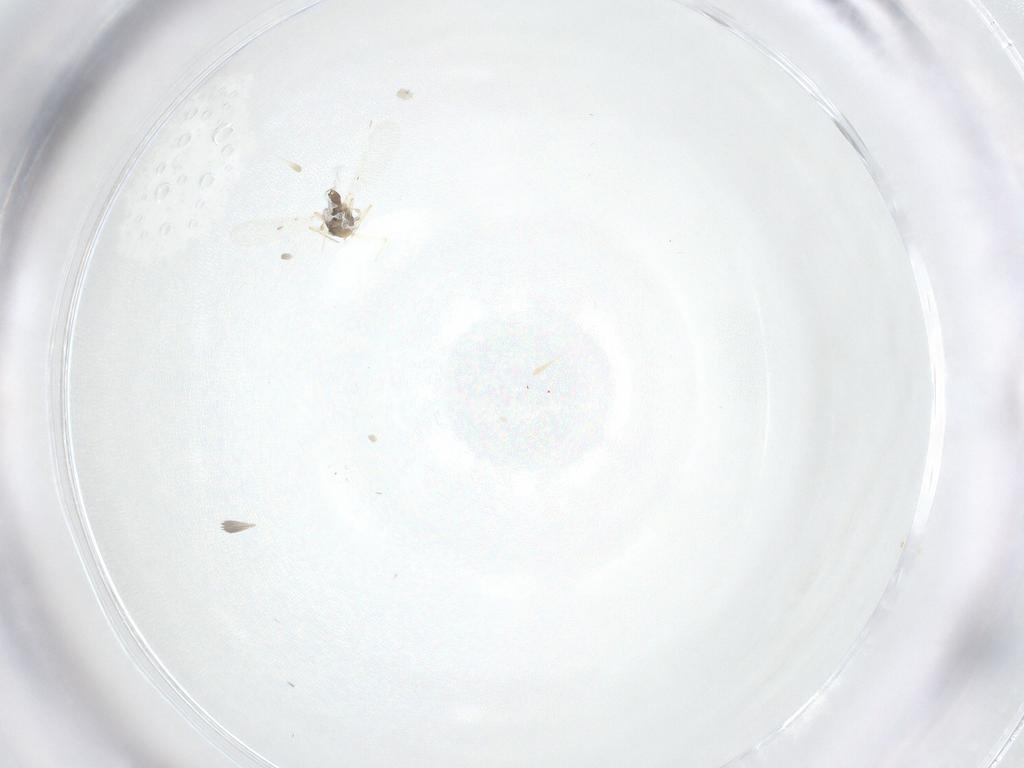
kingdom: Animalia
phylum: Arthropoda
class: Insecta
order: Diptera
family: Chironomidae
